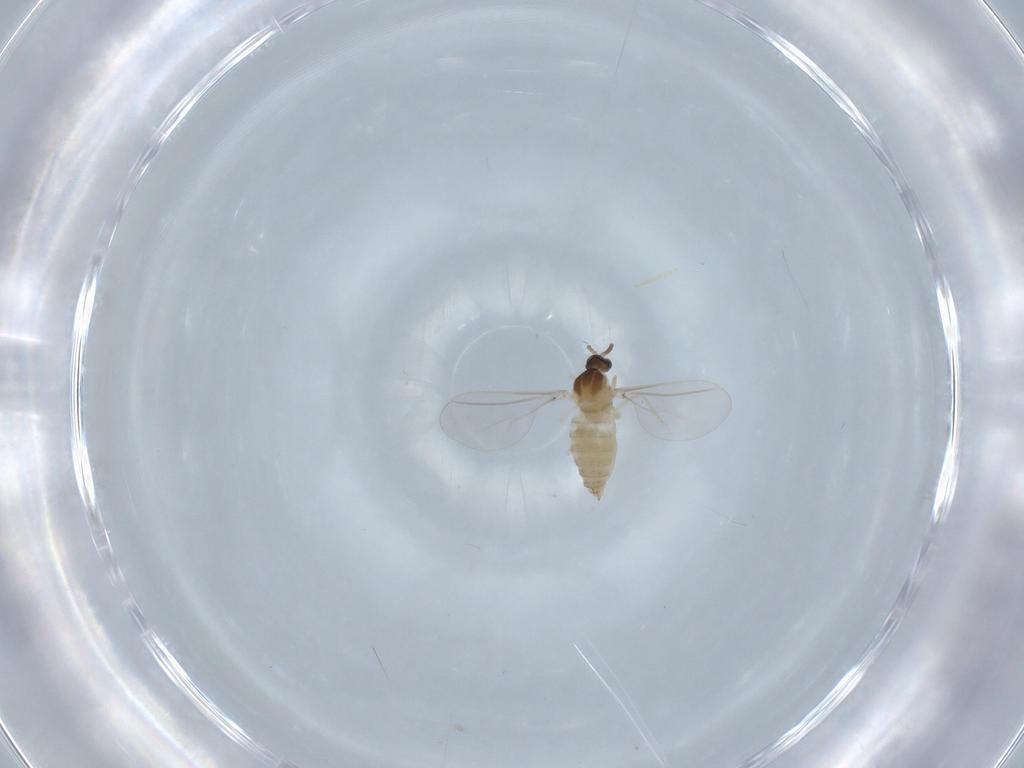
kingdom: Animalia
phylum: Arthropoda
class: Insecta
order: Diptera
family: Cecidomyiidae
